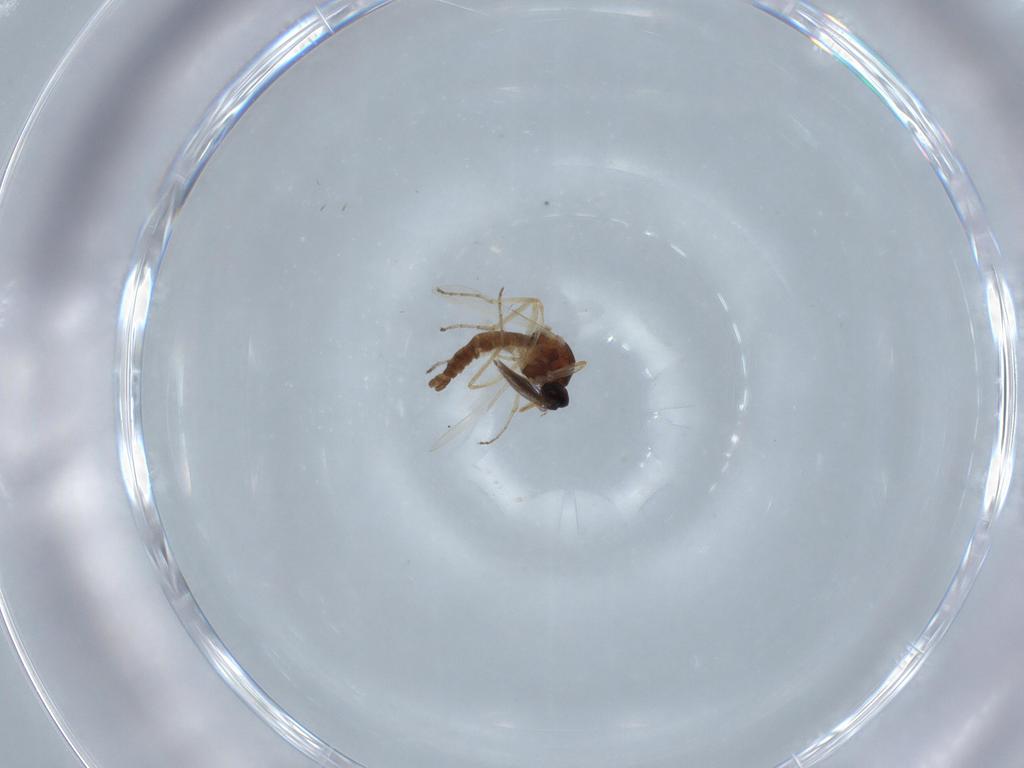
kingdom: Animalia
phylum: Arthropoda
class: Insecta
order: Diptera
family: Ceratopogonidae
